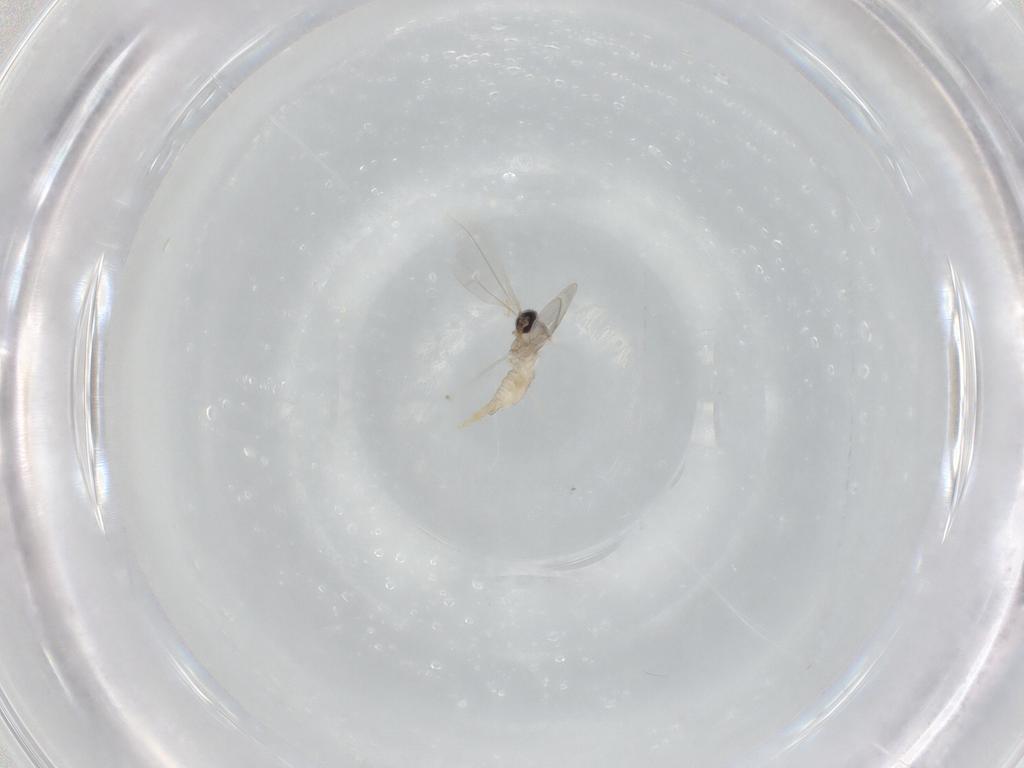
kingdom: Animalia
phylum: Arthropoda
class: Insecta
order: Diptera
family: Cecidomyiidae
